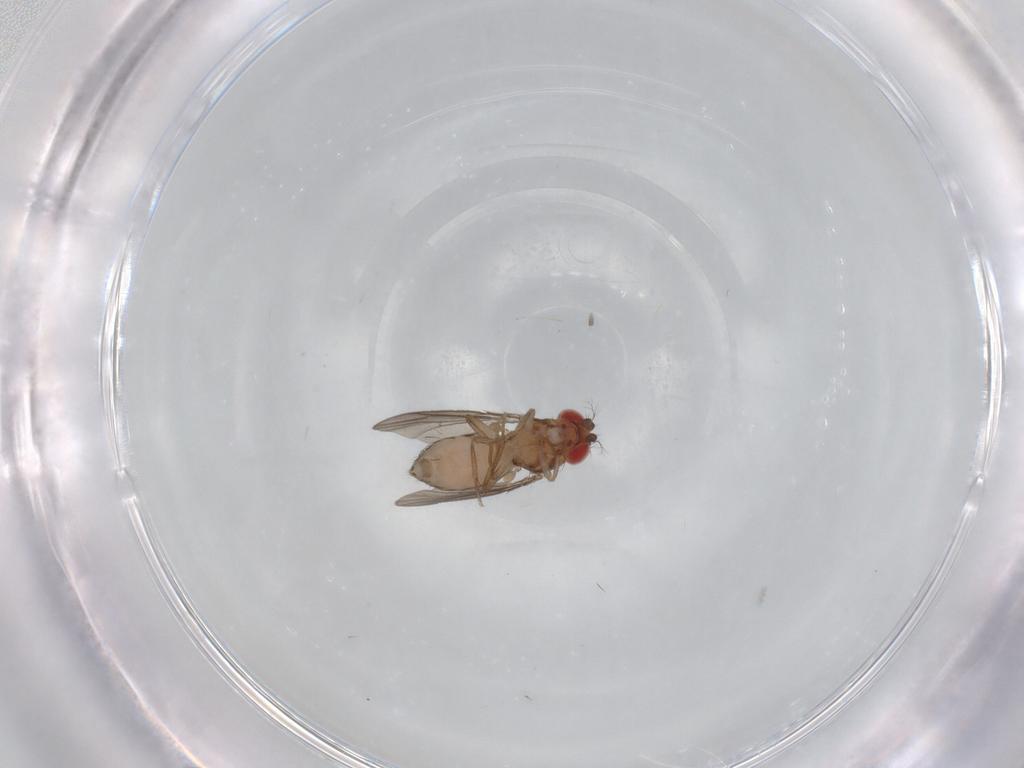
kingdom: Animalia
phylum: Arthropoda
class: Insecta
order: Diptera
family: Drosophilidae
